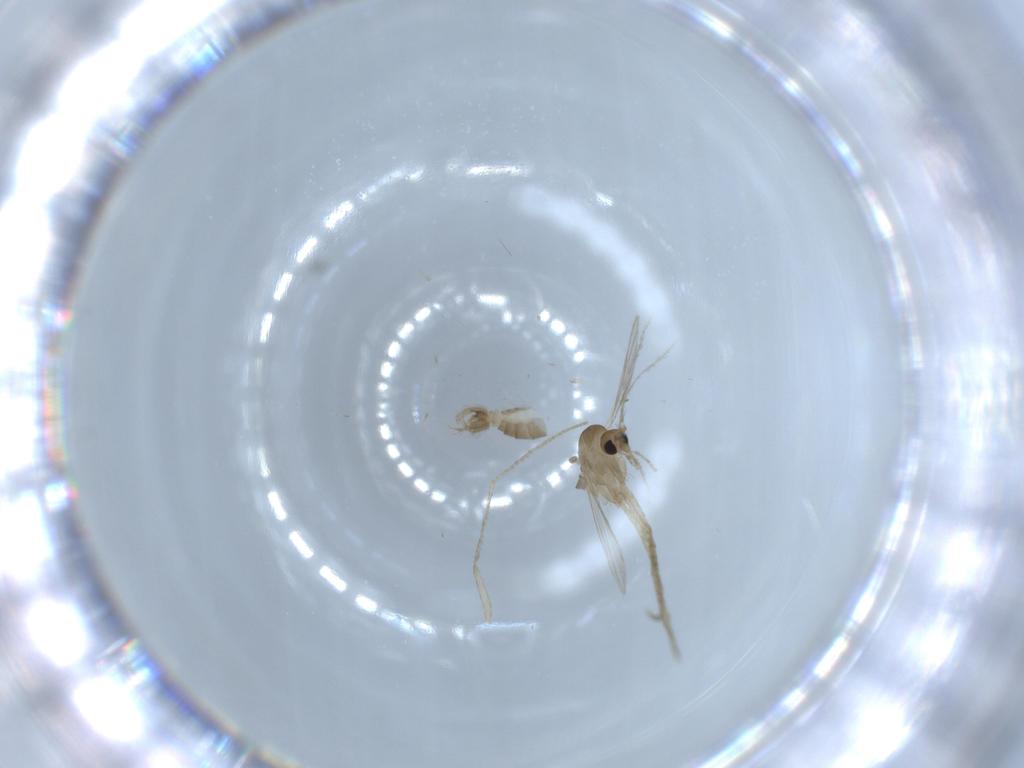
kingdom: Animalia
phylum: Arthropoda
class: Insecta
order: Diptera
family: Psychodidae
